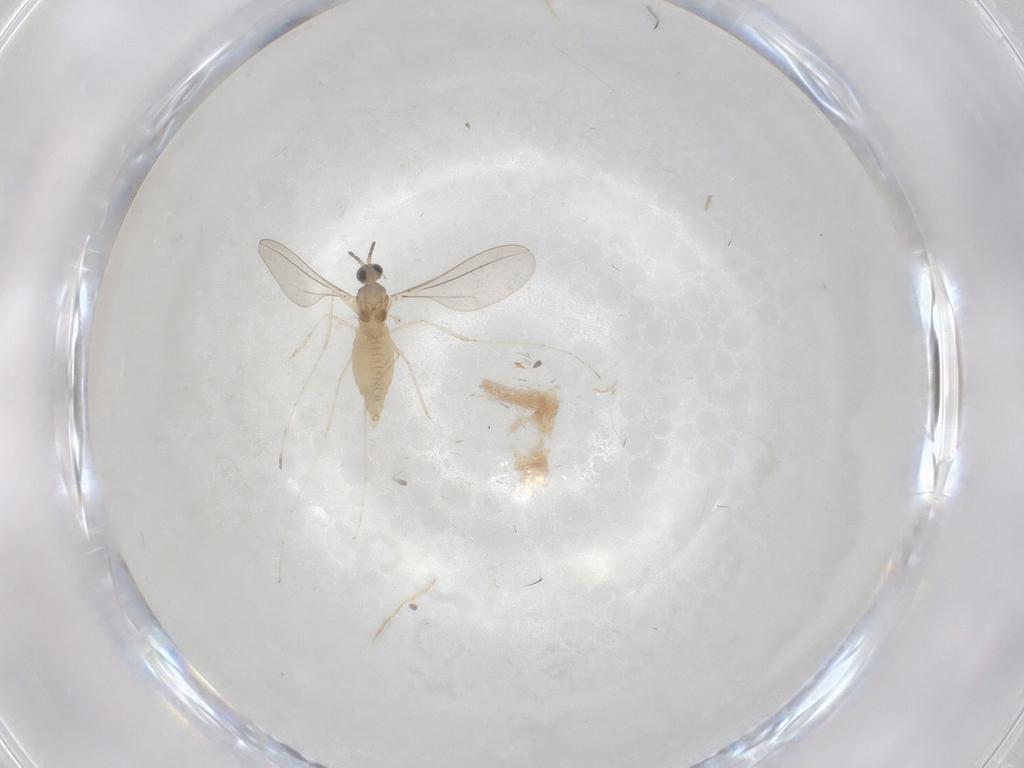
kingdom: Animalia
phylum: Arthropoda
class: Insecta
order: Diptera
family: Cecidomyiidae
